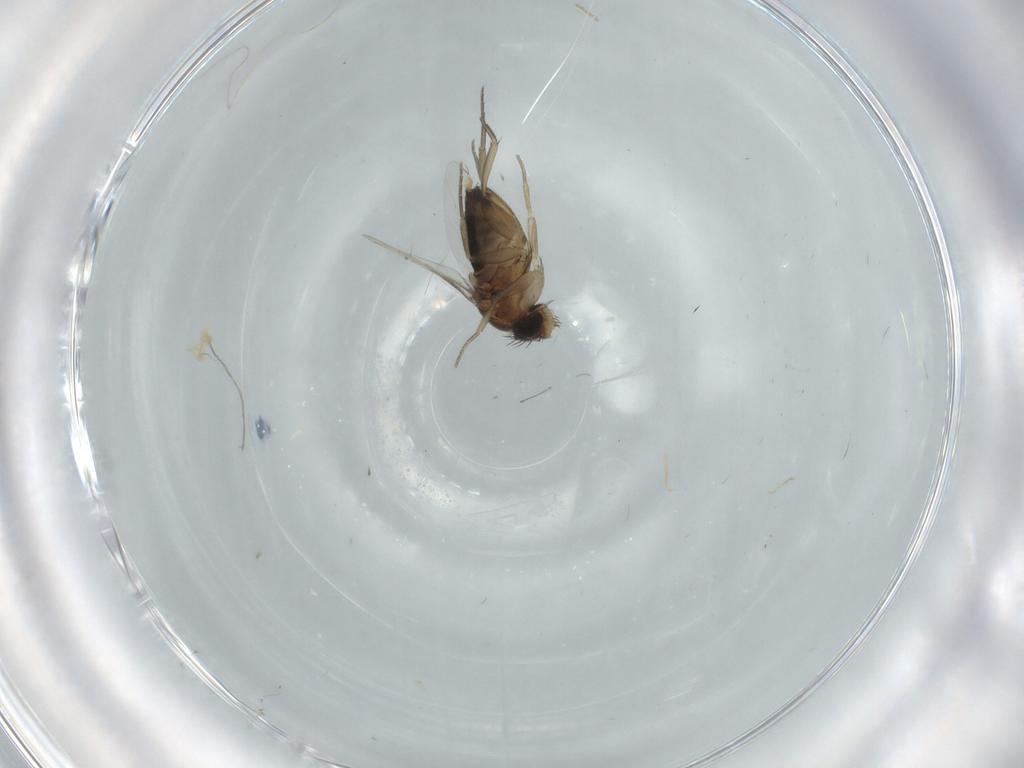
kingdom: Animalia
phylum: Arthropoda
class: Insecta
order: Diptera
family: Phoridae
